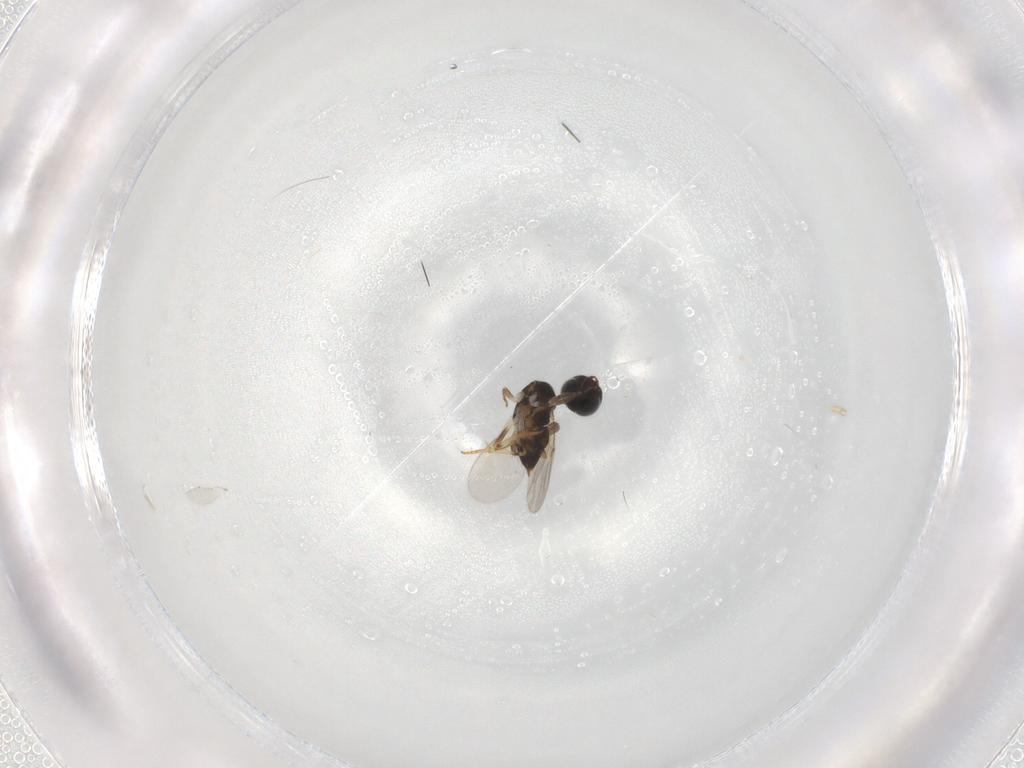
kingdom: Animalia
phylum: Arthropoda
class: Insecta
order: Hymenoptera
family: Encyrtidae
